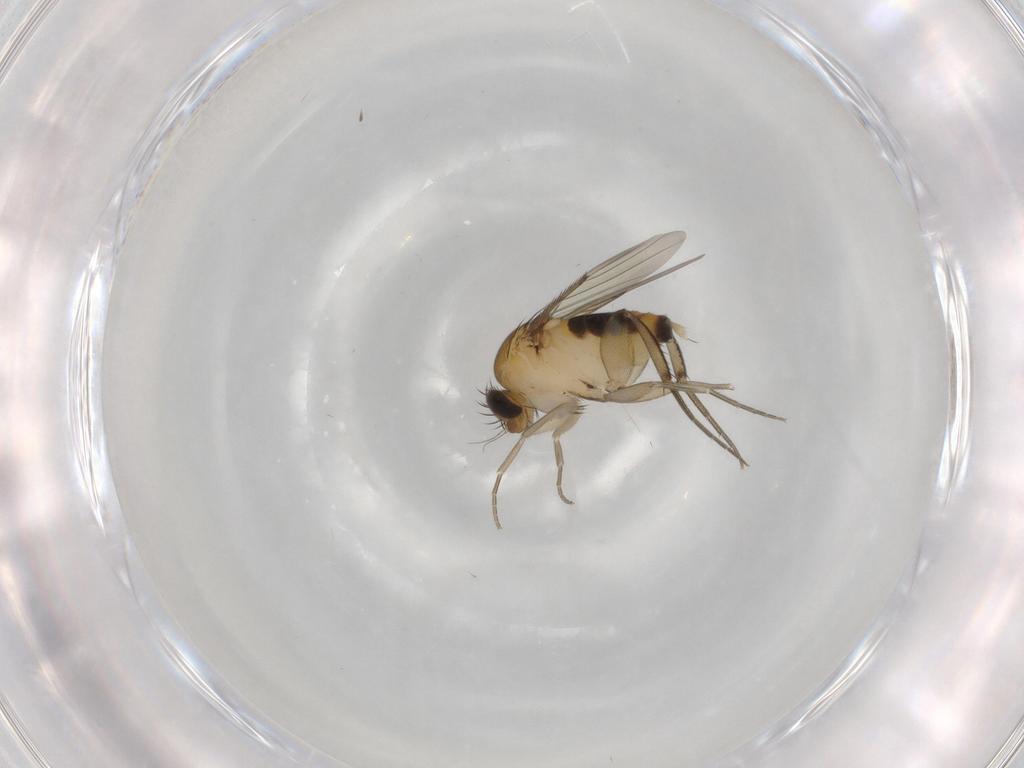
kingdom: Animalia
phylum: Arthropoda
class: Insecta
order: Diptera
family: Phoridae
